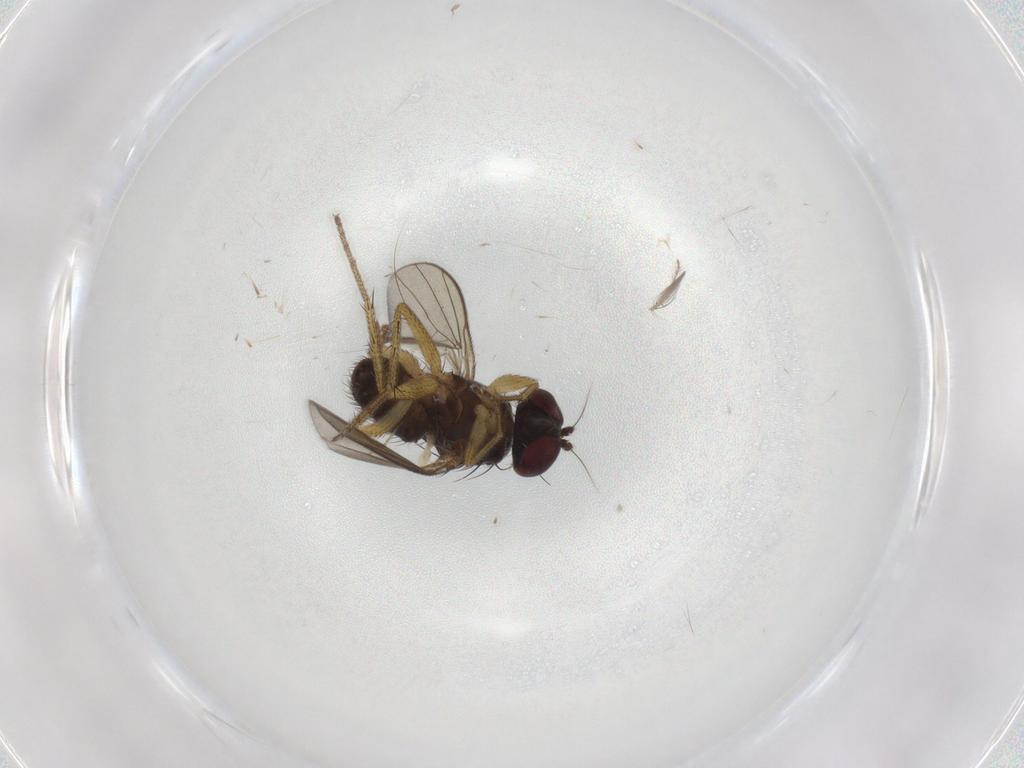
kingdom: Animalia
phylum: Arthropoda
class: Insecta
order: Diptera
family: Dolichopodidae
